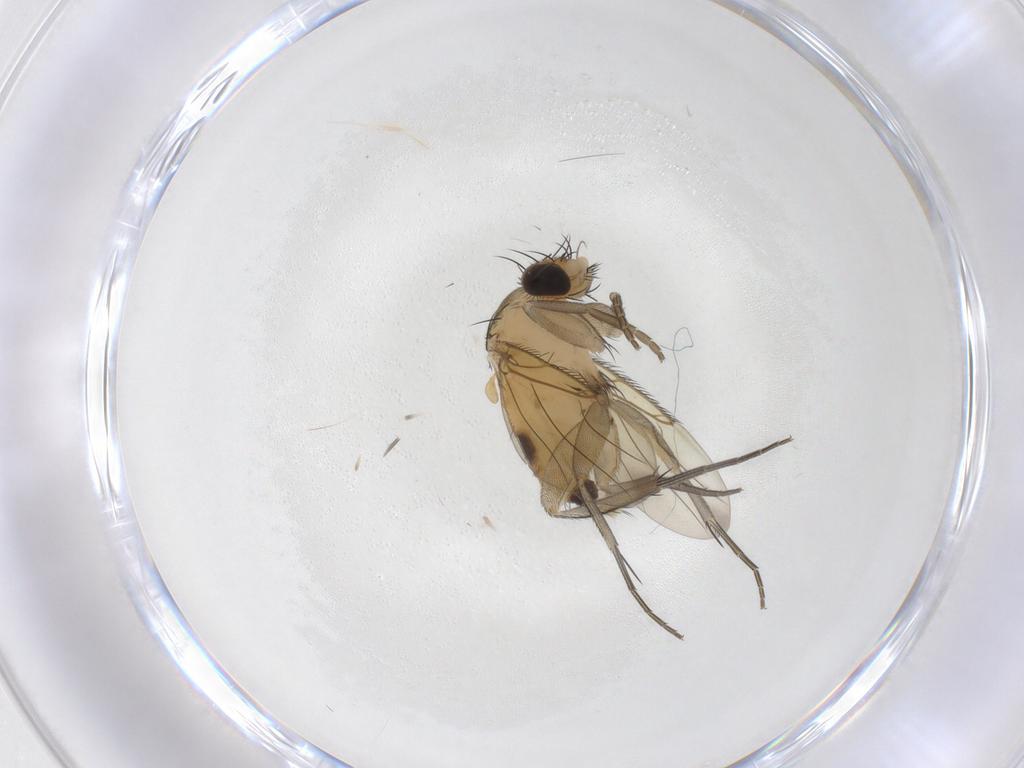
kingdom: Animalia
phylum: Arthropoda
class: Insecta
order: Diptera
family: Phoridae
